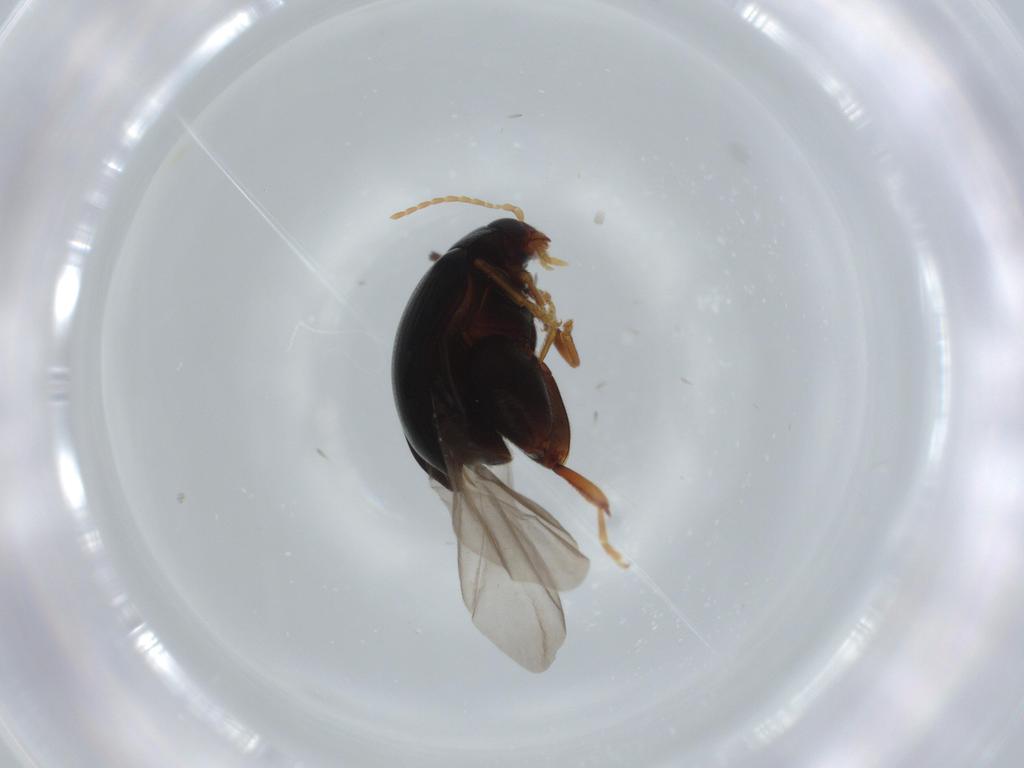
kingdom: Animalia
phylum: Arthropoda
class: Insecta
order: Coleoptera
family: Chrysomelidae
